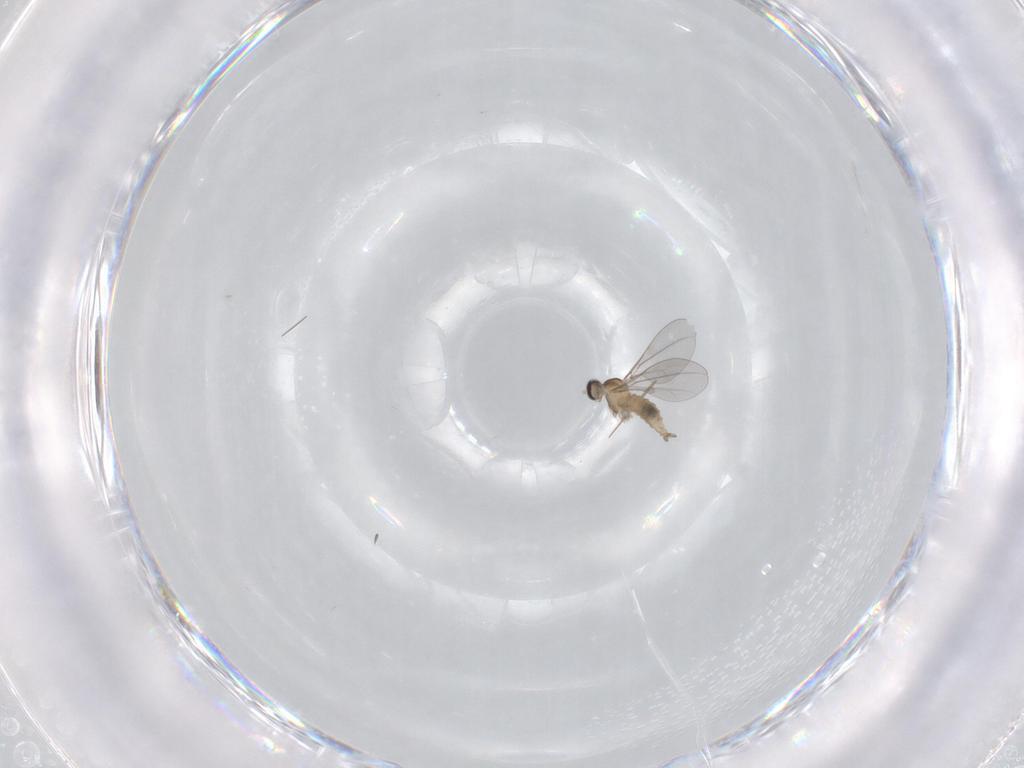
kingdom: Animalia
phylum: Arthropoda
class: Insecta
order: Diptera
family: Cecidomyiidae
